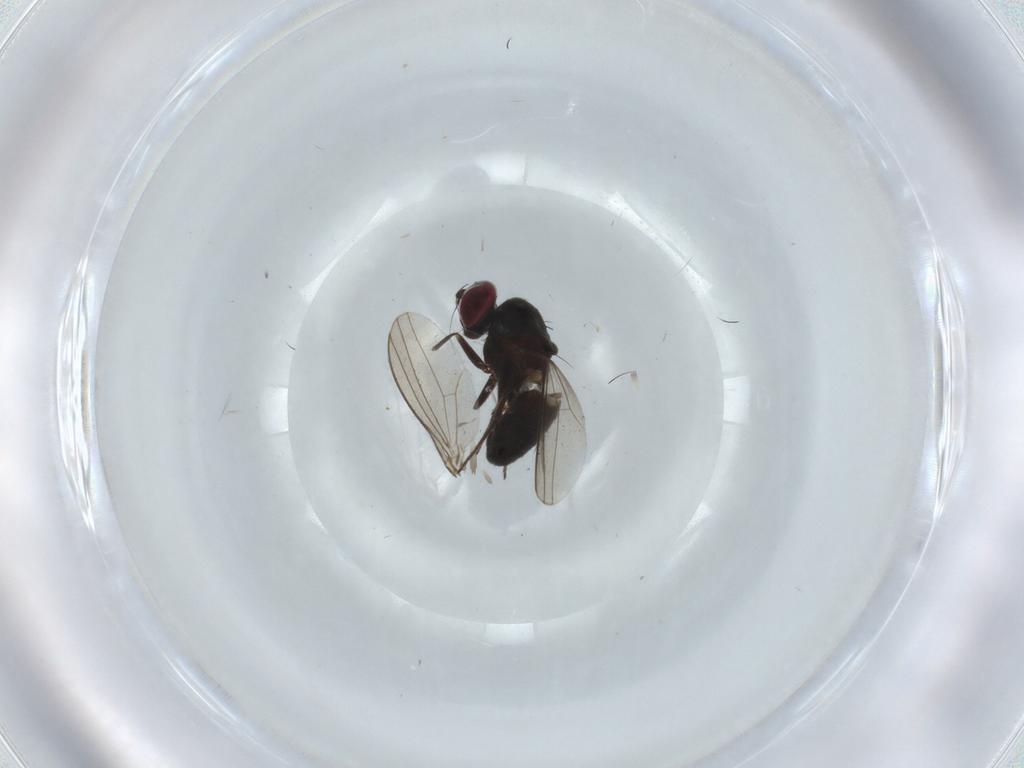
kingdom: Animalia
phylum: Arthropoda
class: Insecta
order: Diptera
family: Dolichopodidae
